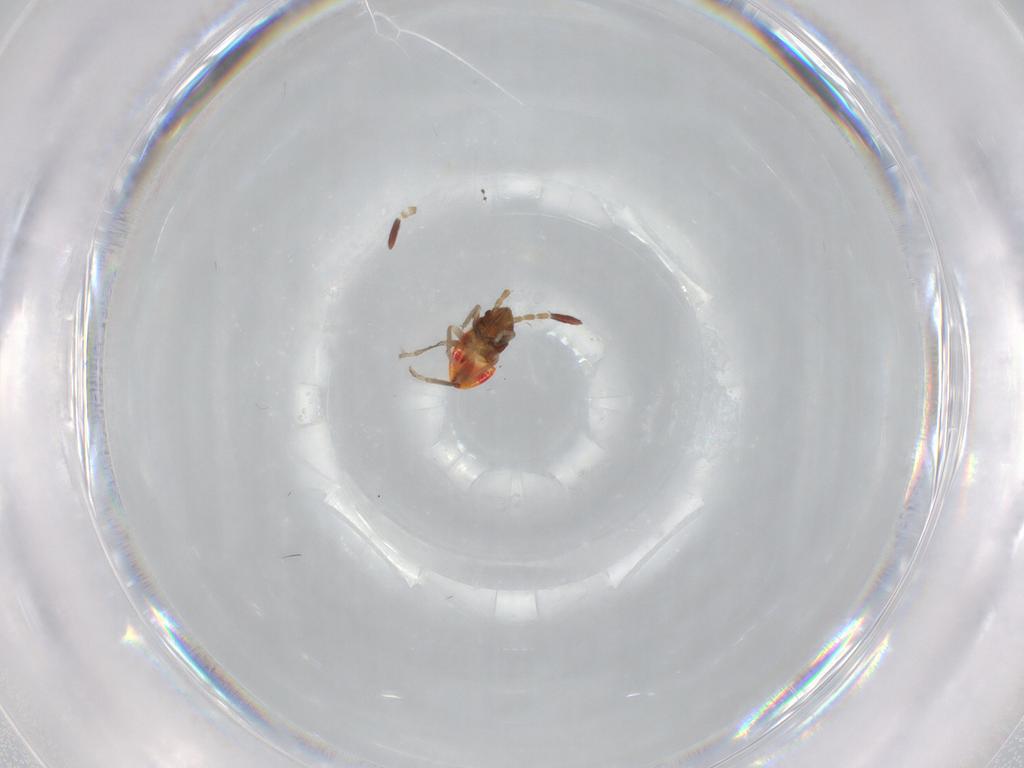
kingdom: Animalia
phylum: Arthropoda
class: Insecta
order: Hemiptera
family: Rhyparochromidae
